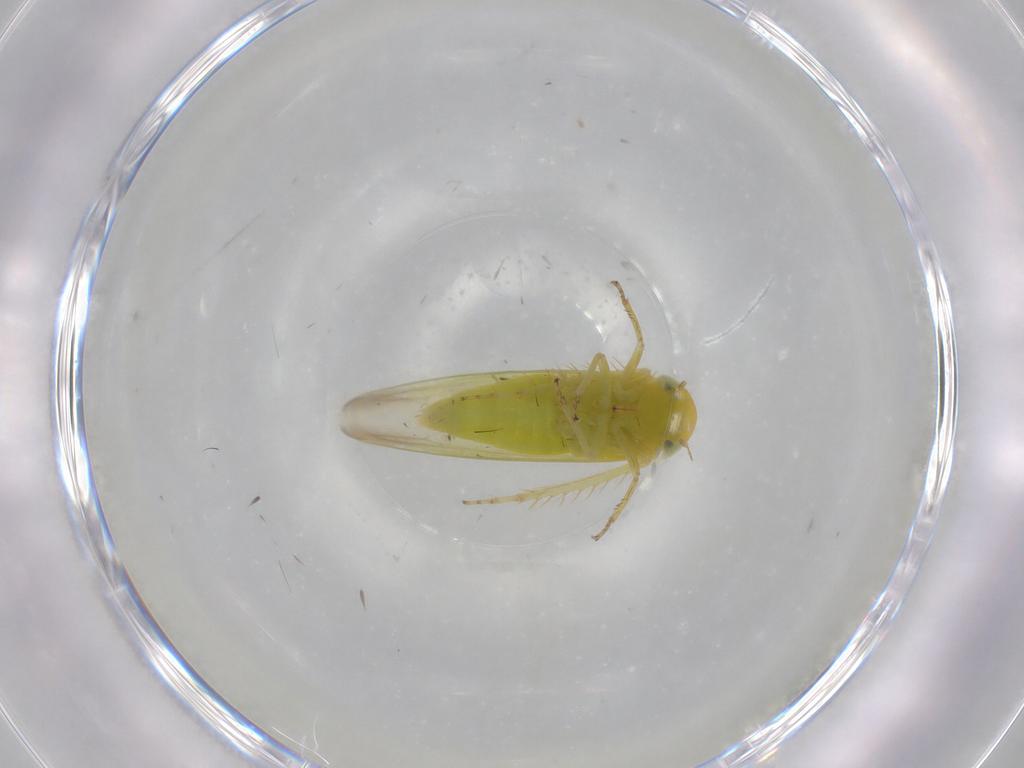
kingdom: Animalia
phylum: Arthropoda
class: Insecta
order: Hemiptera
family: Cicadellidae
